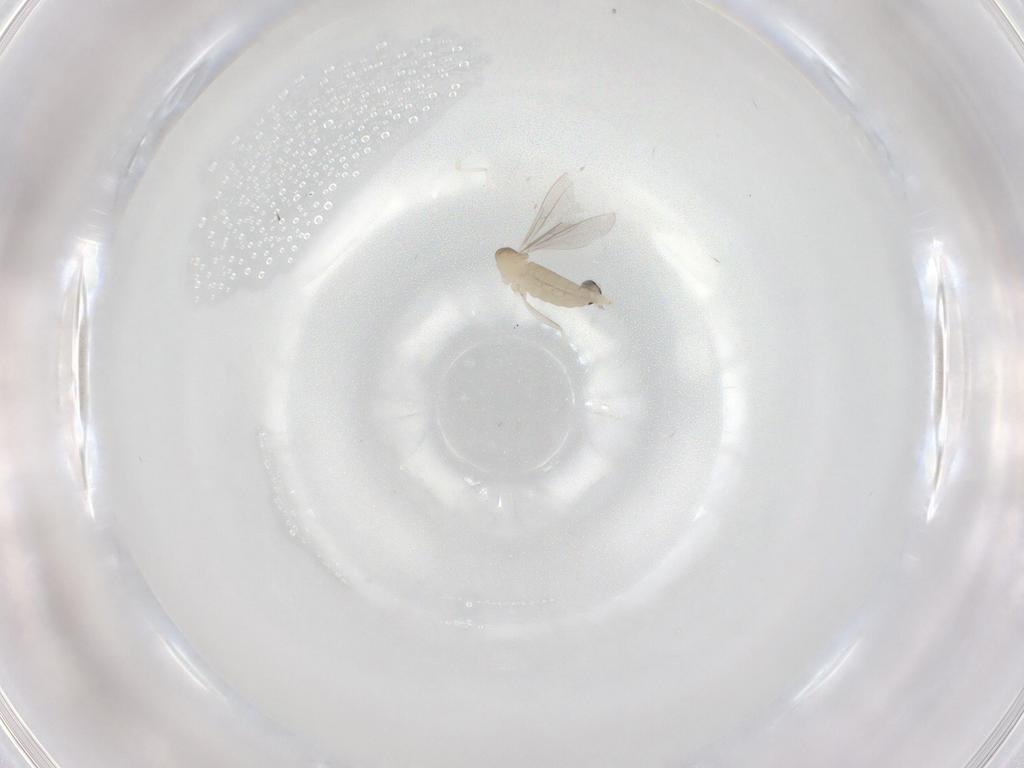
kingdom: Animalia
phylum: Arthropoda
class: Insecta
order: Diptera
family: Cecidomyiidae
